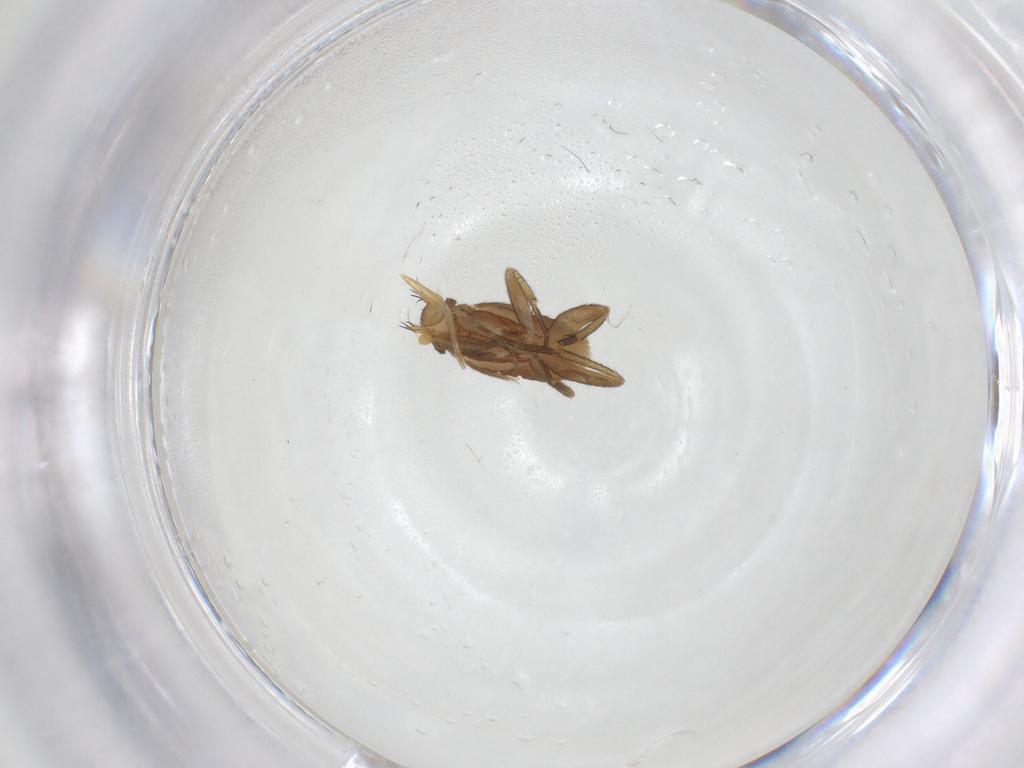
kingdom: Animalia
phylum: Arthropoda
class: Insecta
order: Diptera
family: Phoridae
